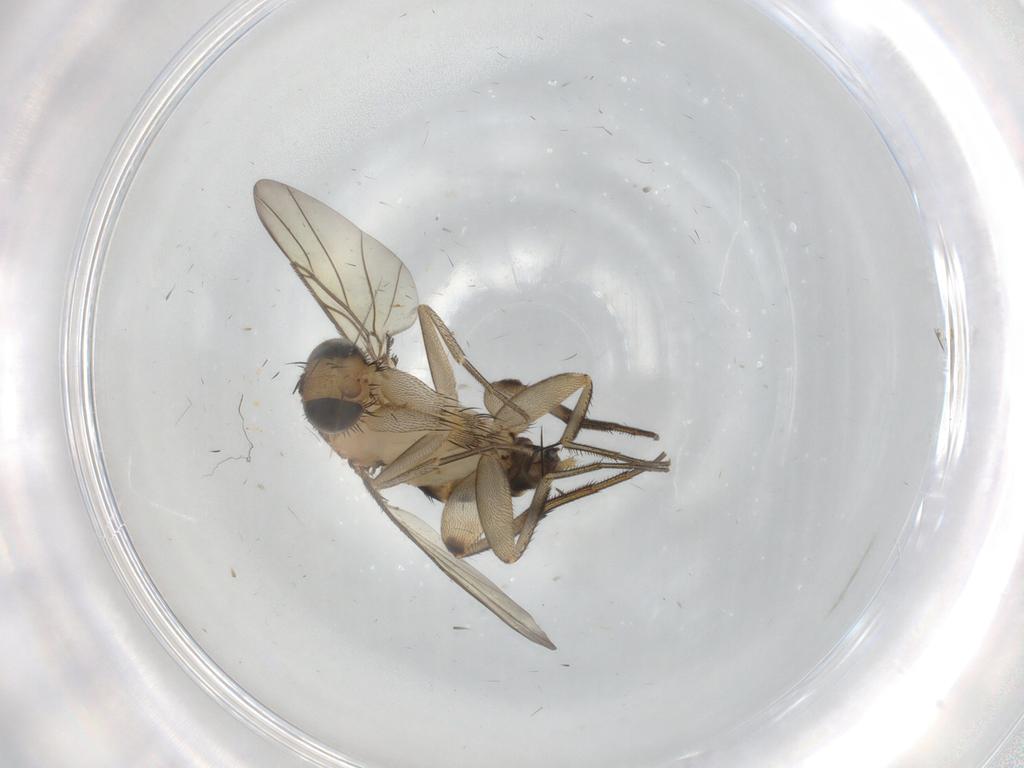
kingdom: Animalia
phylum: Arthropoda
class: Insecta
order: Diptera
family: Phoridae
